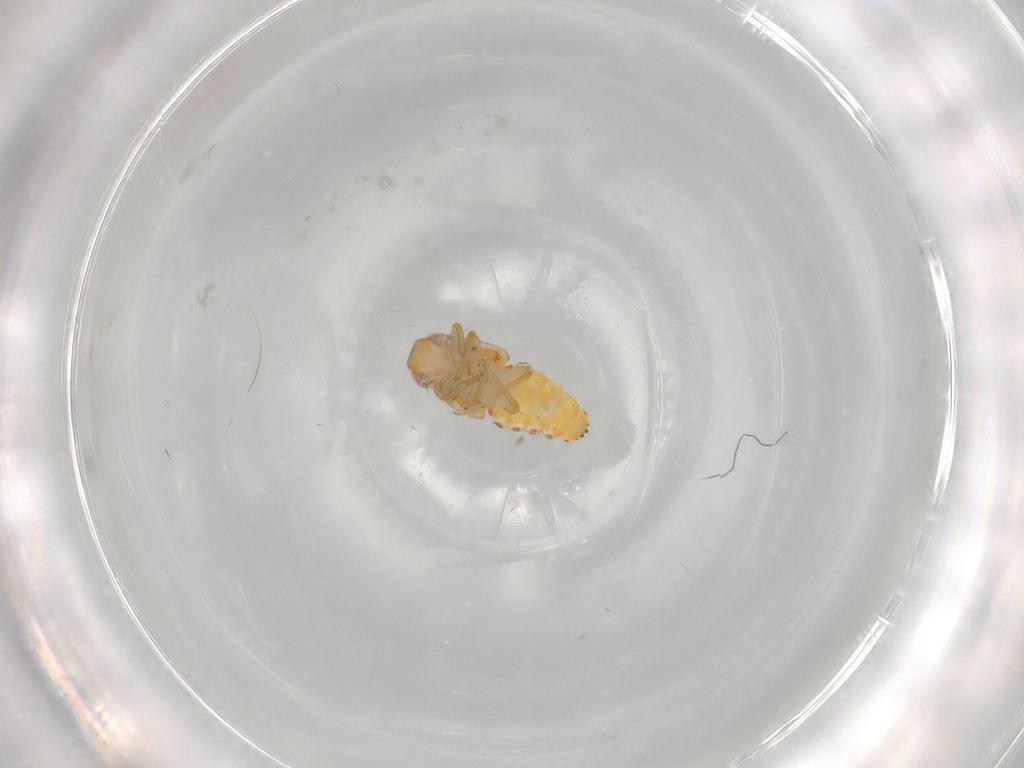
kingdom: Animalia
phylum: Arthropoda
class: Insecta
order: Hemiptera
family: Issidae
